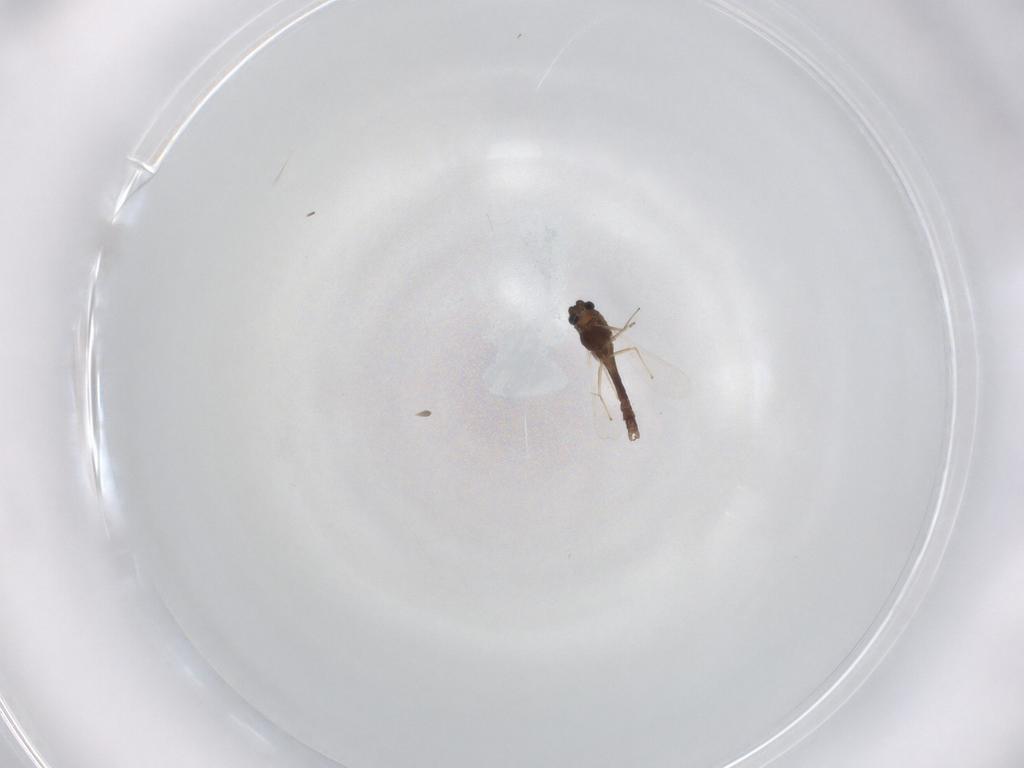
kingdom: Animalia
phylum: Arthropoda
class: Insecta
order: Diptera
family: Chironomidae
